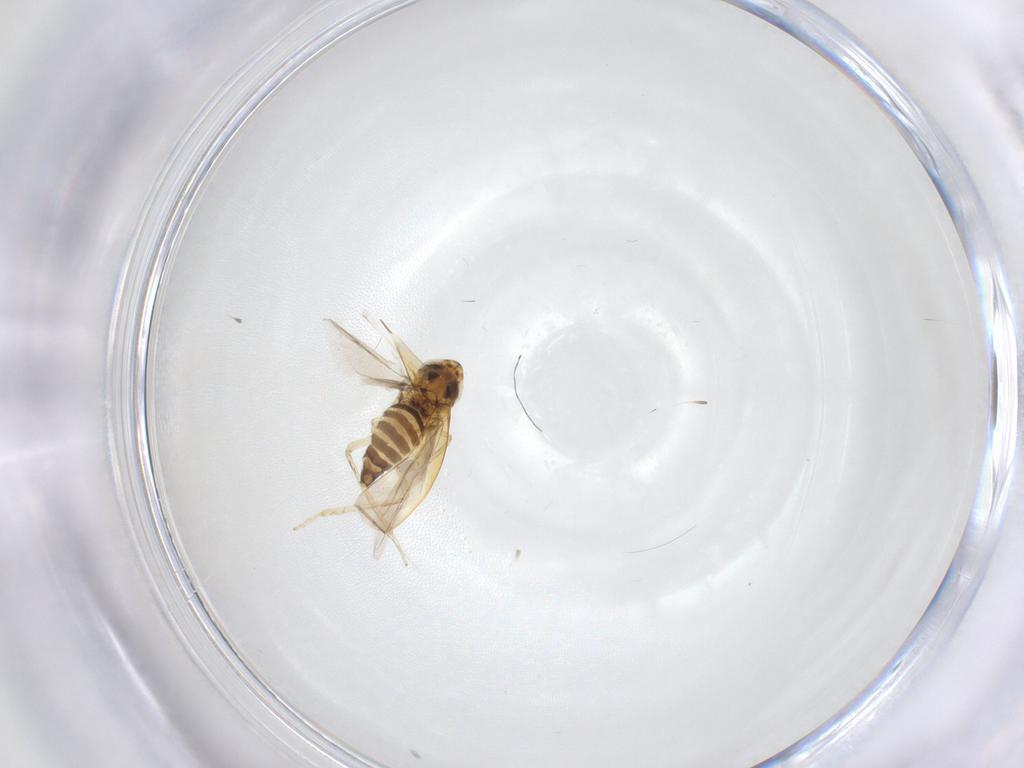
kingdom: Animalia
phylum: Arthropoda
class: Insecta
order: Hemiptera
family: Cicadellidae
